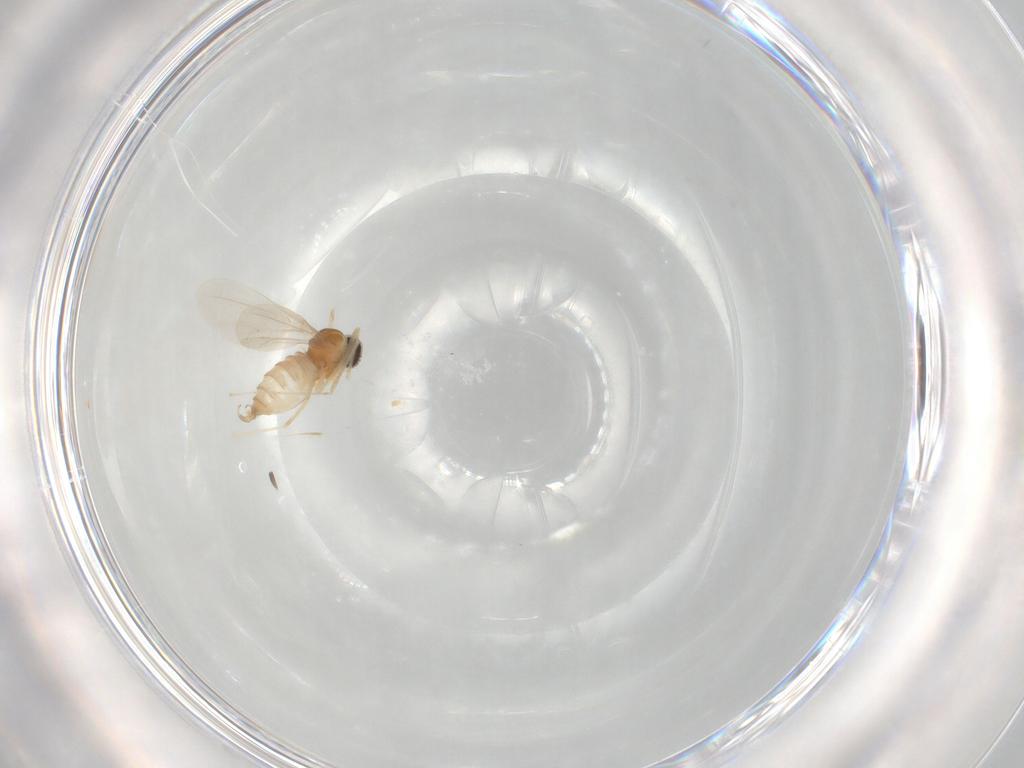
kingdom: Animalia
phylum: Arthropoda
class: Insecta
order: Diptera
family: Cecidomyiidae
